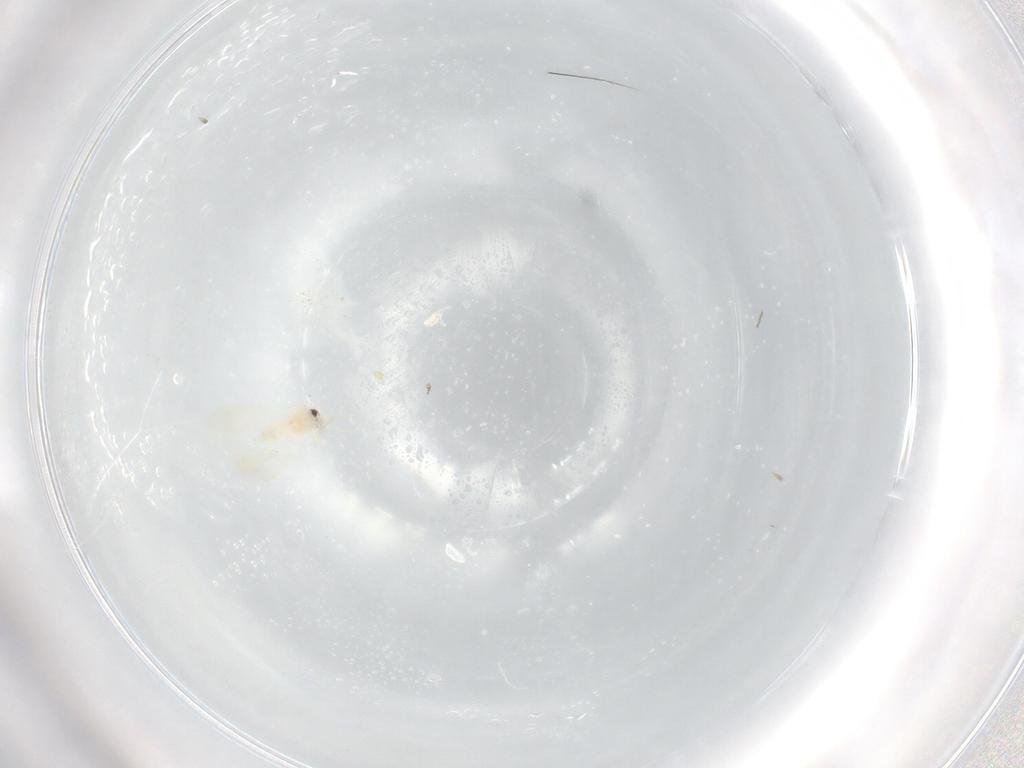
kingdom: Animalia
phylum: Arthropoda
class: Insecta
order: Hemiptera
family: Aleyrodidae
